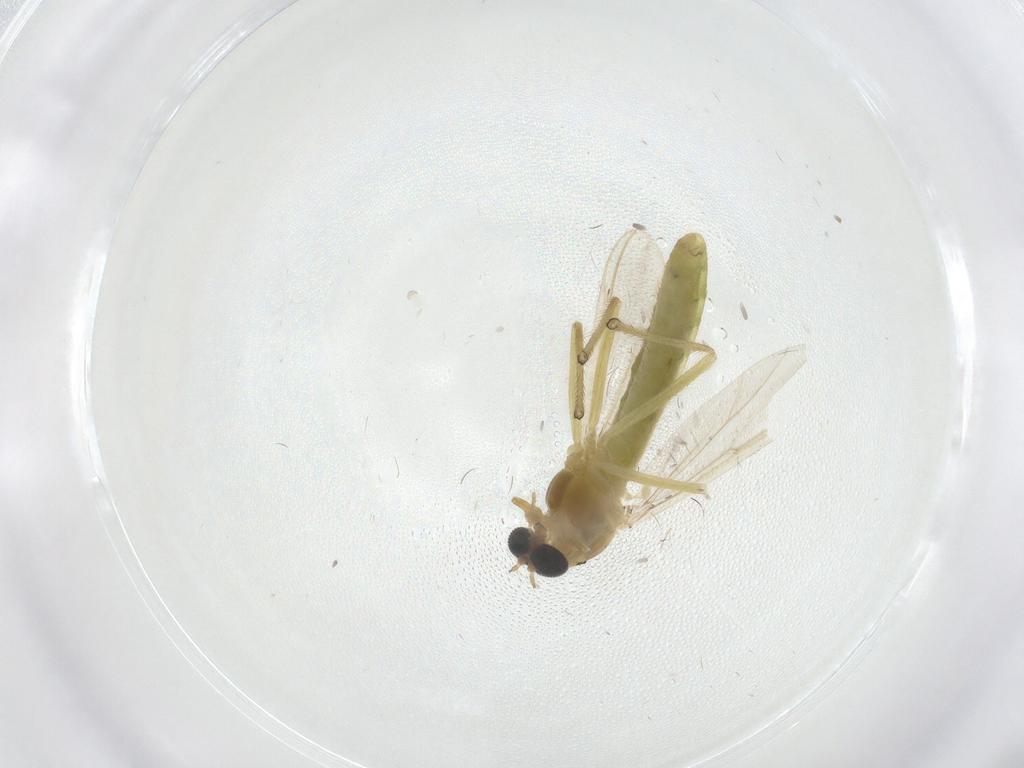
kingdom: Animalia
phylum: Arthropoda
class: Insecta
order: Diptera
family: Chironomidae
